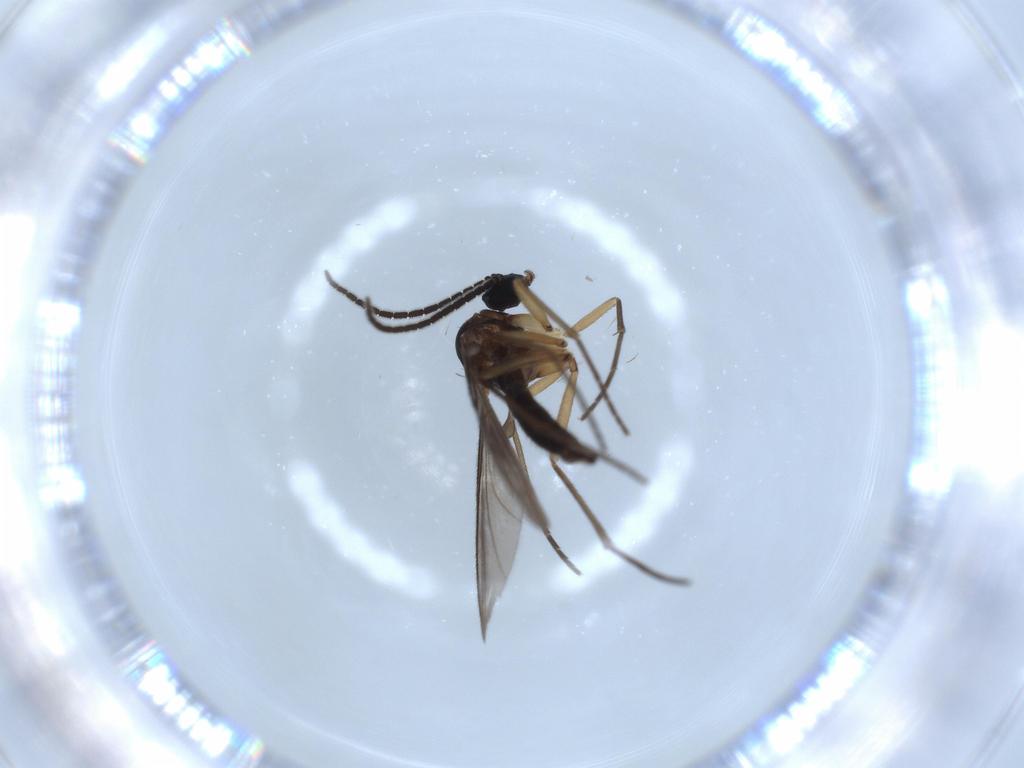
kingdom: Animalia
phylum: Arthropoda
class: Insecta
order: Diptera
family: Sciaridae
